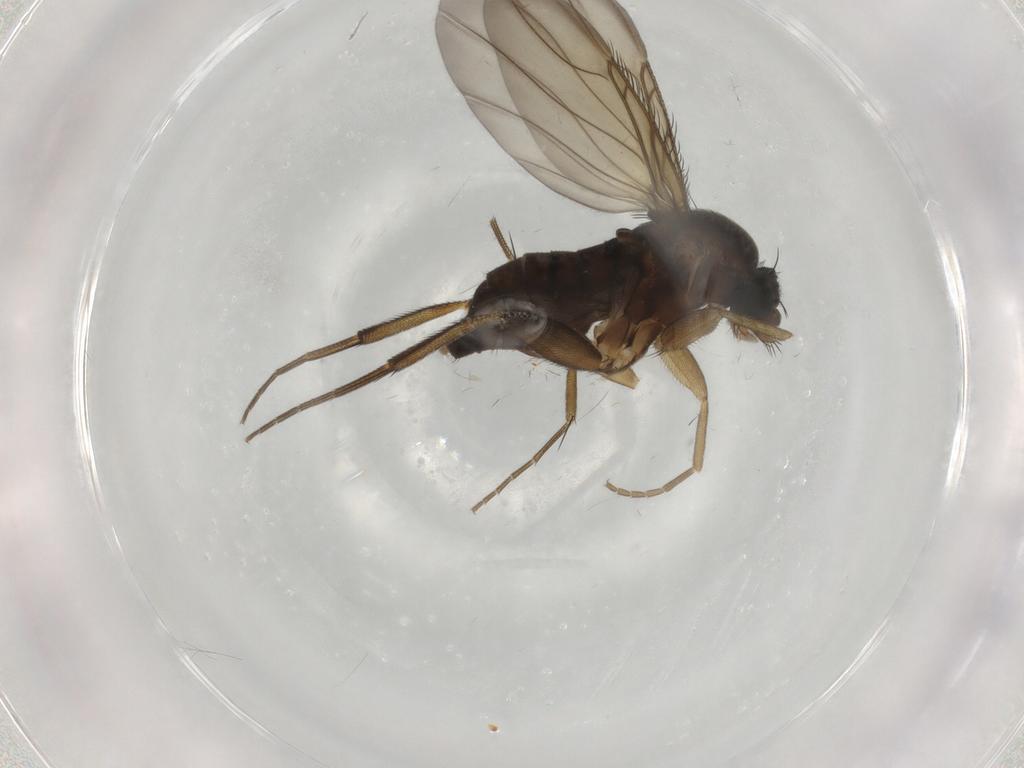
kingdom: Animalia
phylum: Arthropoda
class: Insecta
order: Diptera
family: Phoridae
